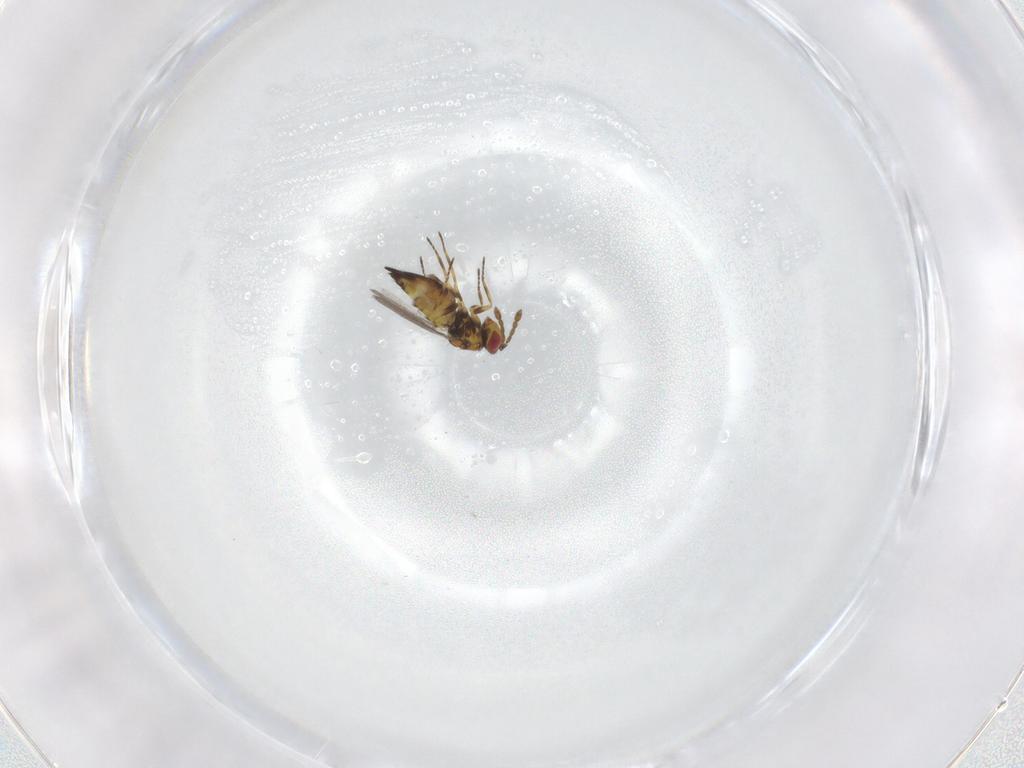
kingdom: Animalia
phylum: Arthropoda
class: Insecta
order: Hymenoptera
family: Eulophidae
